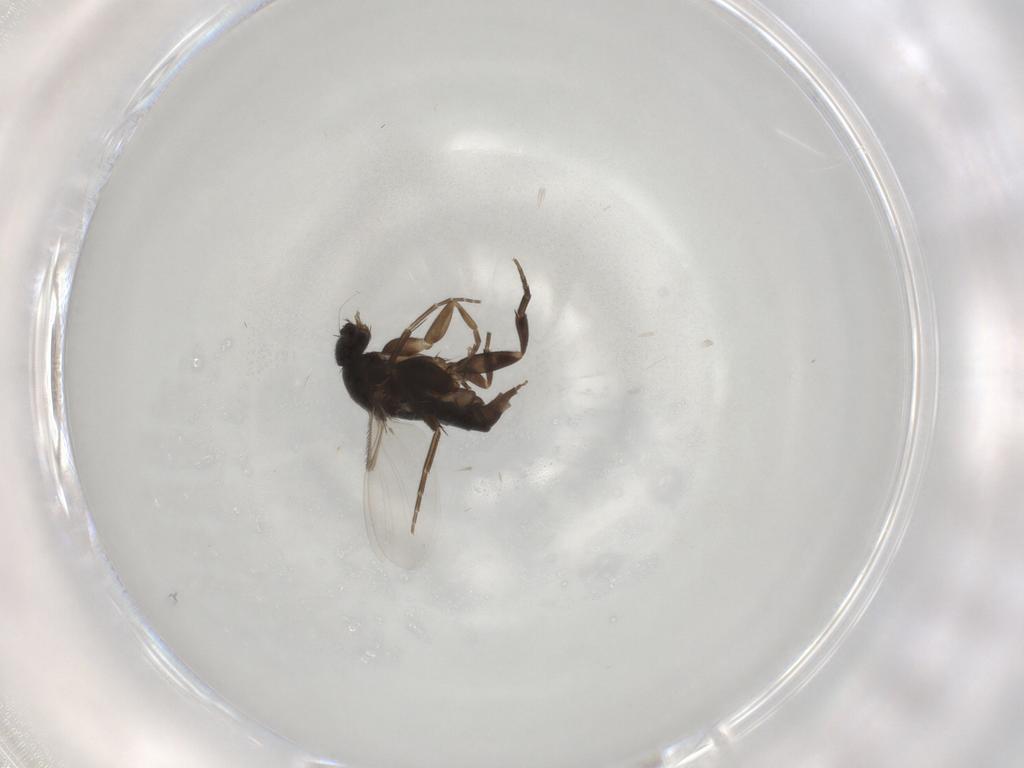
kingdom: Animalia
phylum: Arthropoda
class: Insecta
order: Diptera
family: Phoridae
